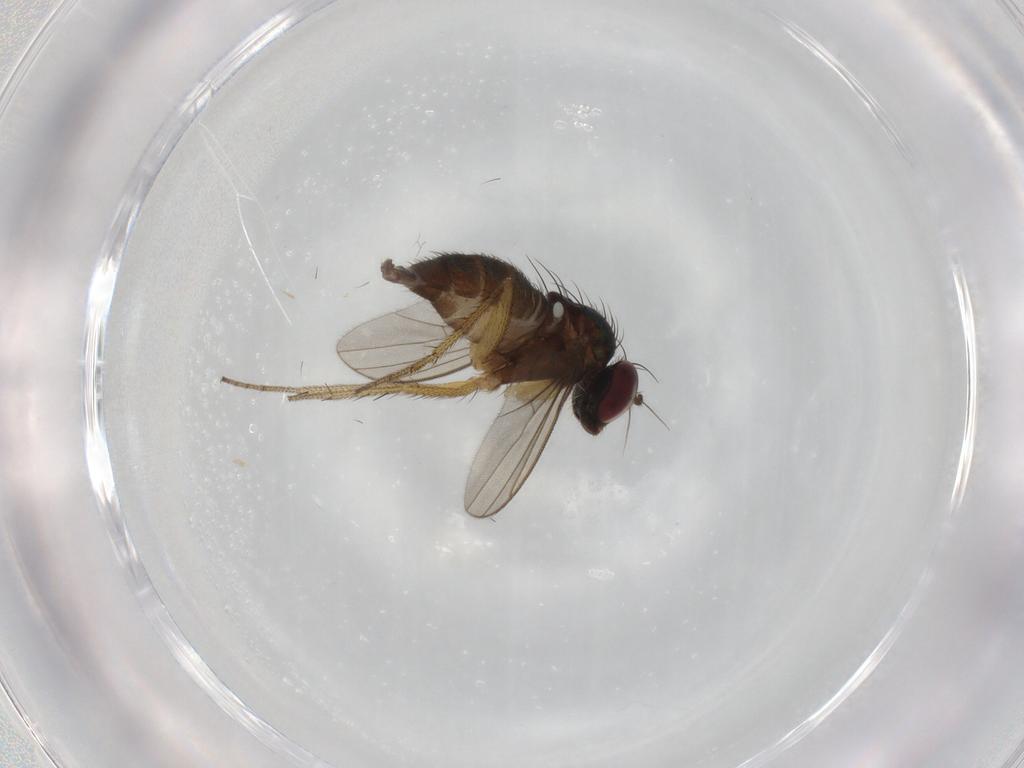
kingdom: Animalia
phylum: Arthropoda
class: Insecta
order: Diptera
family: Dolichopodidae
